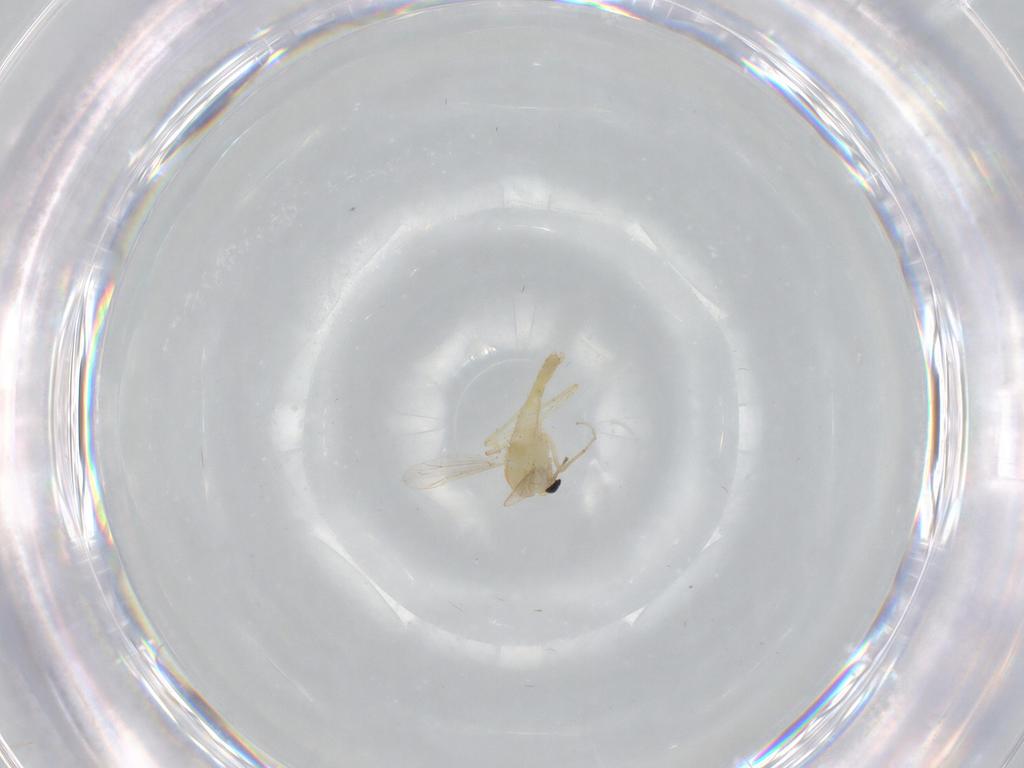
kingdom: Animalia
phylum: Arthropoda
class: Insecta
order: Diptera
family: Chironomidae
